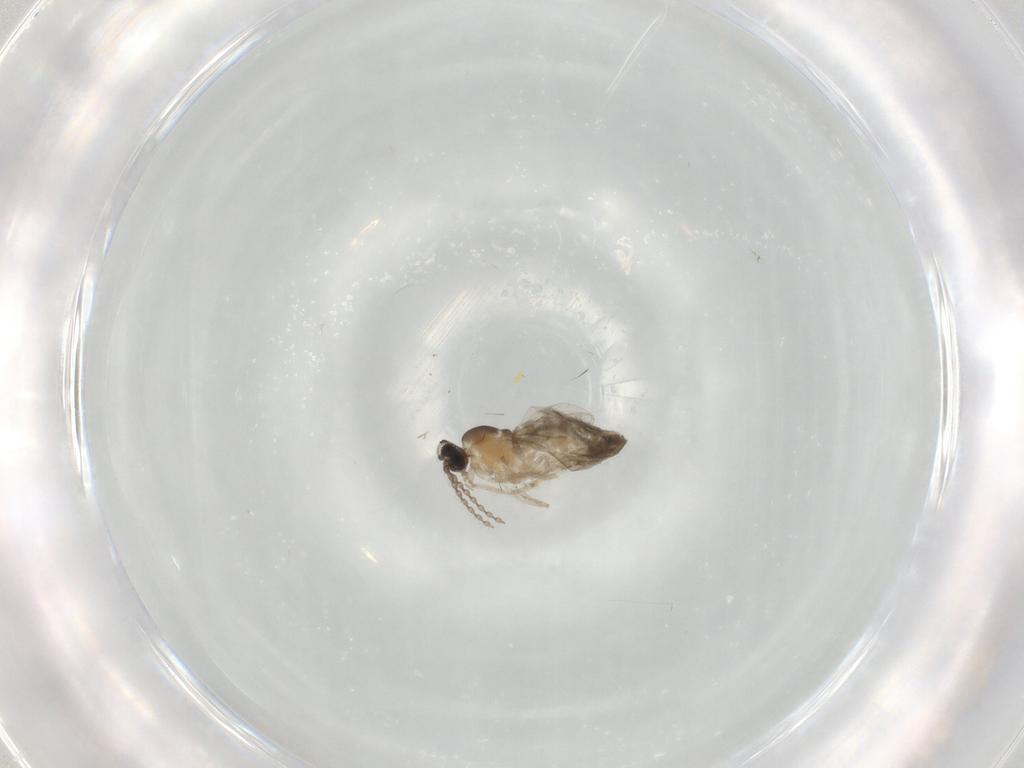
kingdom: Animalia
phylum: Arthropoda
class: Insecta
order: Diptera
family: Cecidomyiidae
